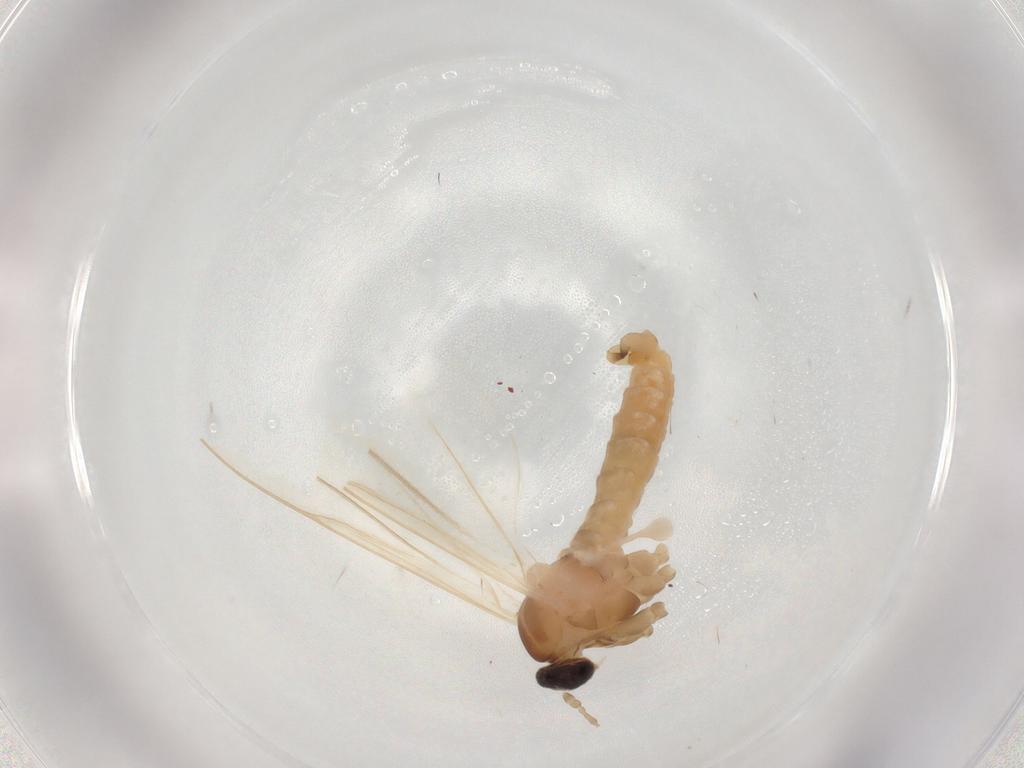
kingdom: Animalia
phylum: Arthropoda
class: Insecta
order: Diptera
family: Cecidomyiidae
